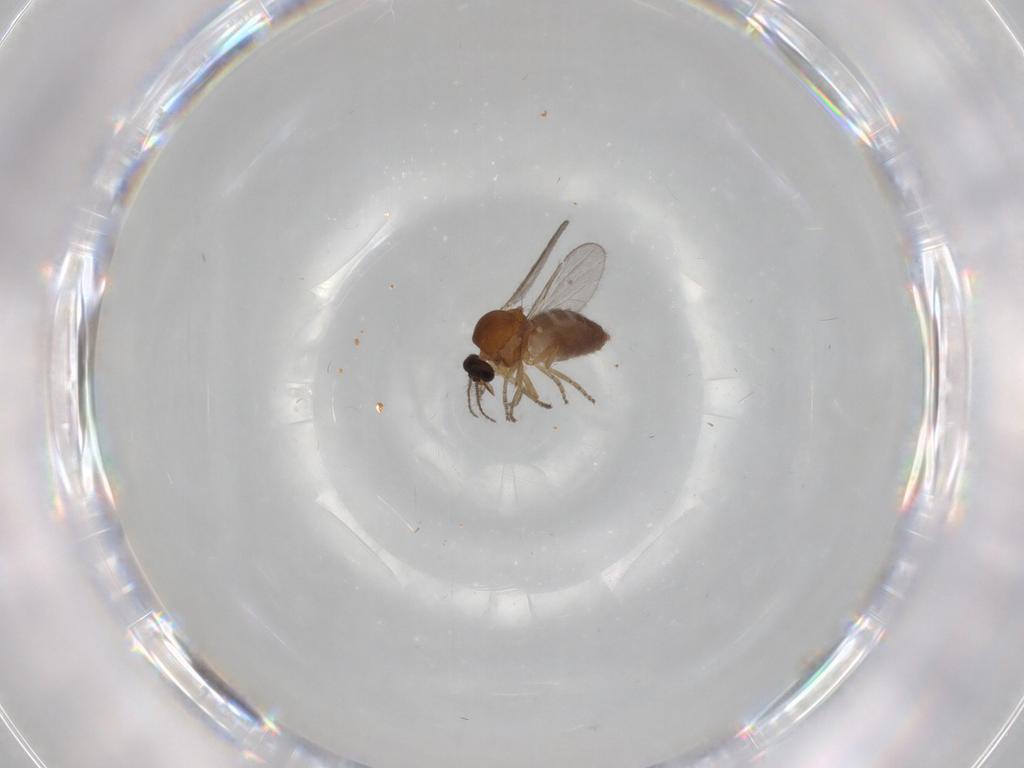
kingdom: Animalia
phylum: Arthropoda
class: Insecta
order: Diptera
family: Ceratopogonidae
